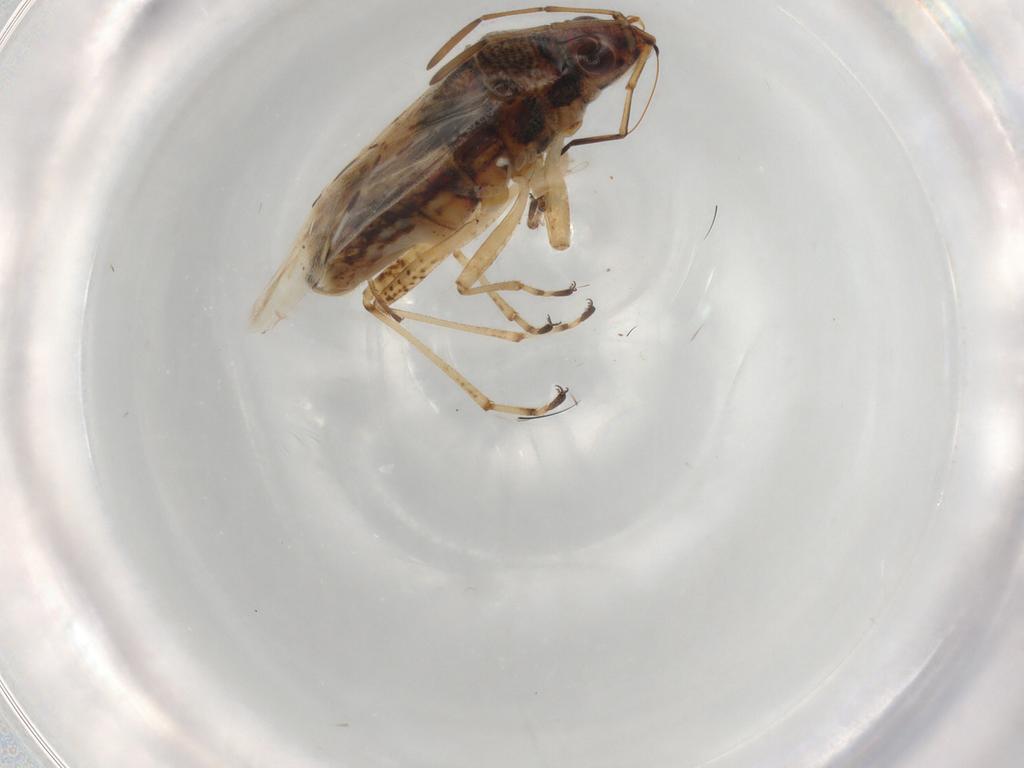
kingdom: Animalia
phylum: Arthropoda
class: Insecta
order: Hemiptera
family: Lygaeidae
